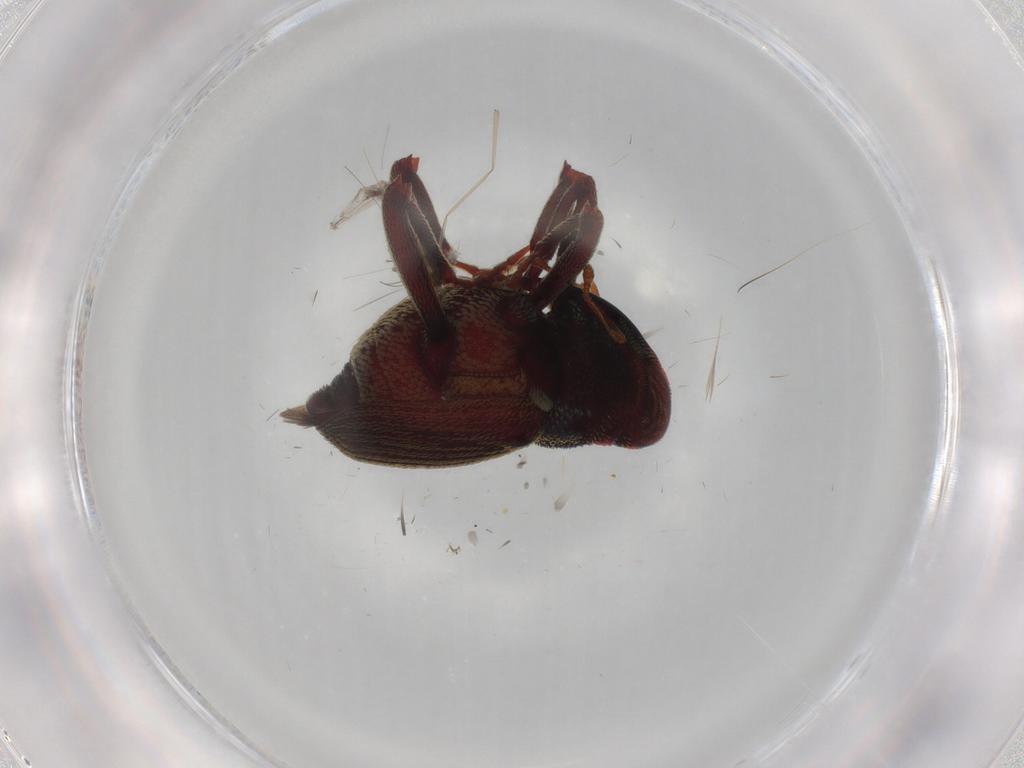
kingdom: Animalia
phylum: Arthropoda
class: Insecta
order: Coleoptera
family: Curculionidae
